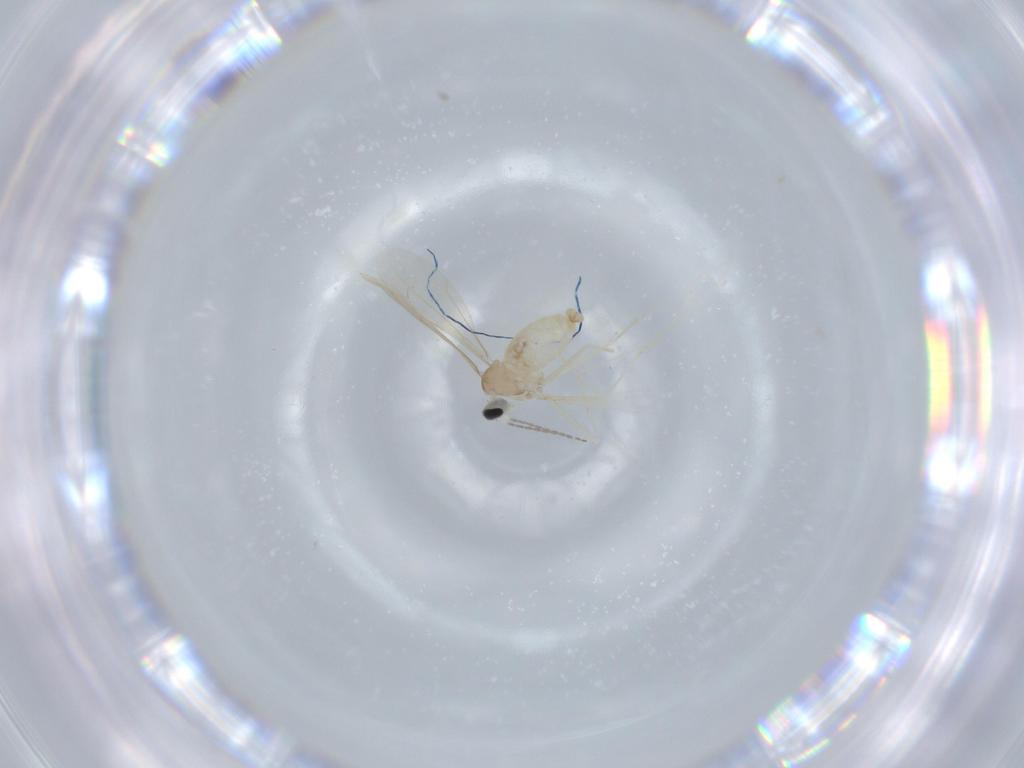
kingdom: Animalia
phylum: Arthropoda
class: Insecta
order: Diptera
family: Cecidomyiidae
